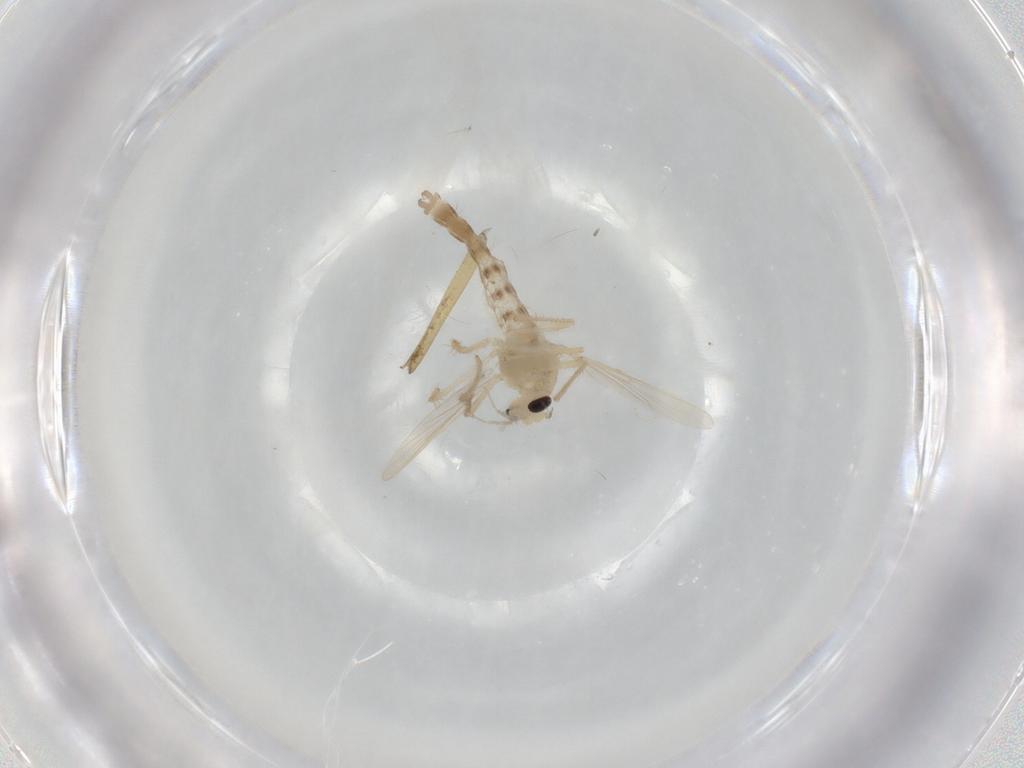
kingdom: Animalia
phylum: Arthropoda
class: Insecta
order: Diptera
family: Chironomidae
